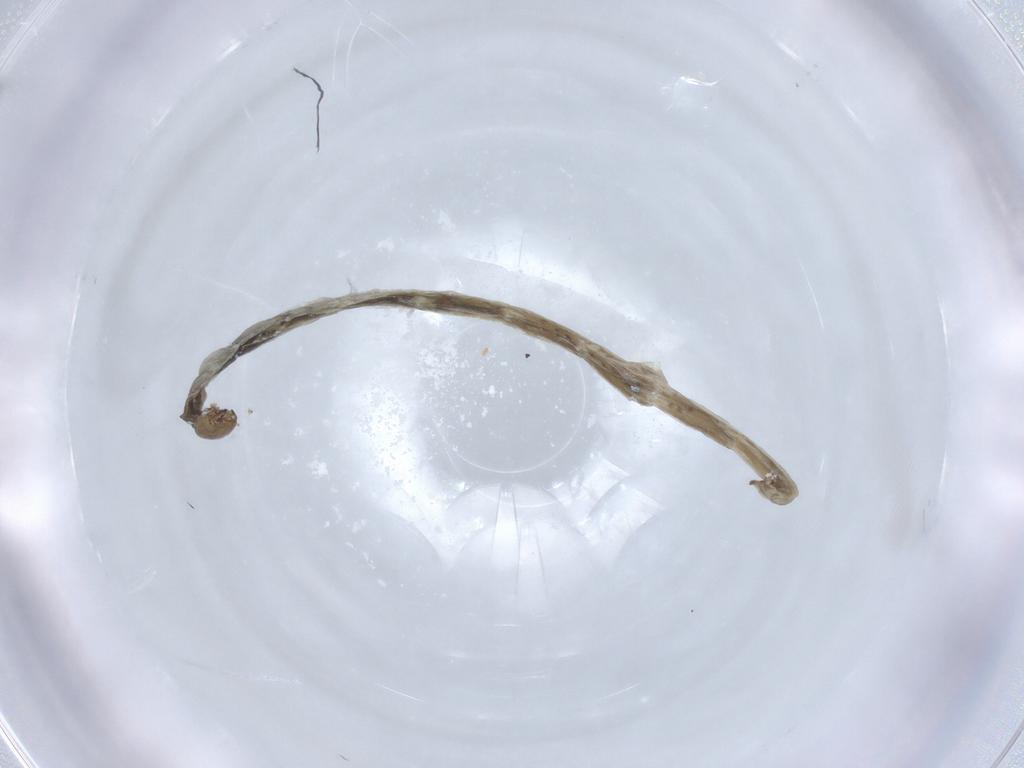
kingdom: Animalia
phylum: Arthropoda
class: Insecta
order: Diptera
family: Chironomidae
